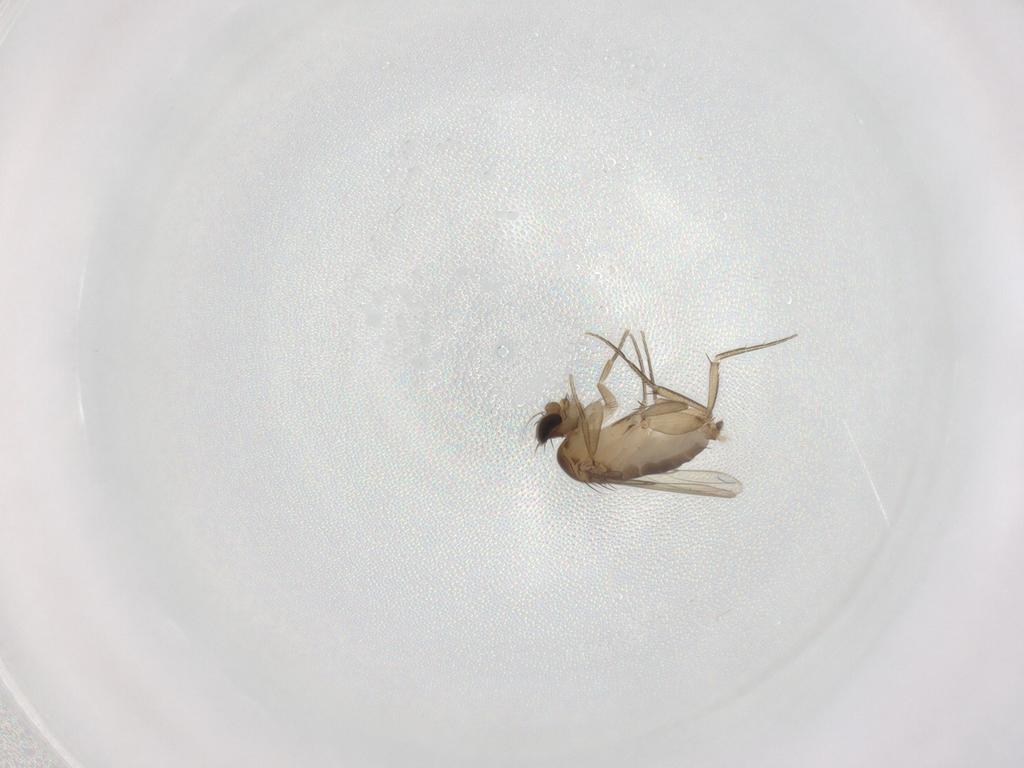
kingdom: Animalia
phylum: Arthropoda
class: Insecta
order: Diptera
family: Phoridae
